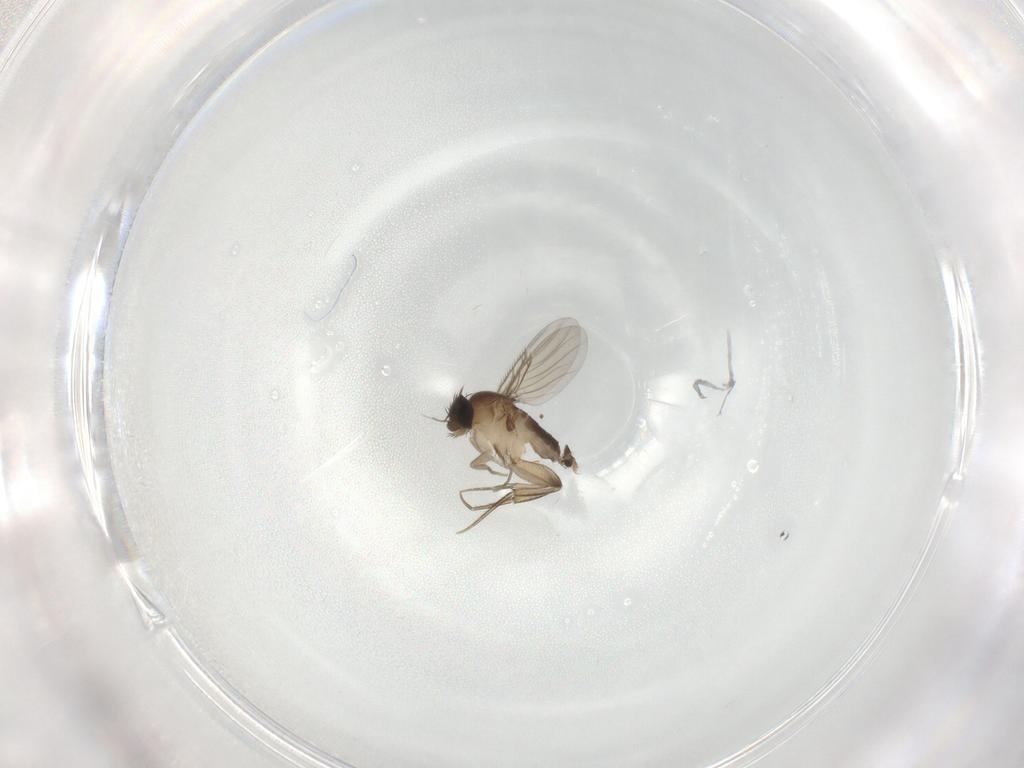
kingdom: Animalia
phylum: Arthropoda
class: Insecta
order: Diptera
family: Phoridae
